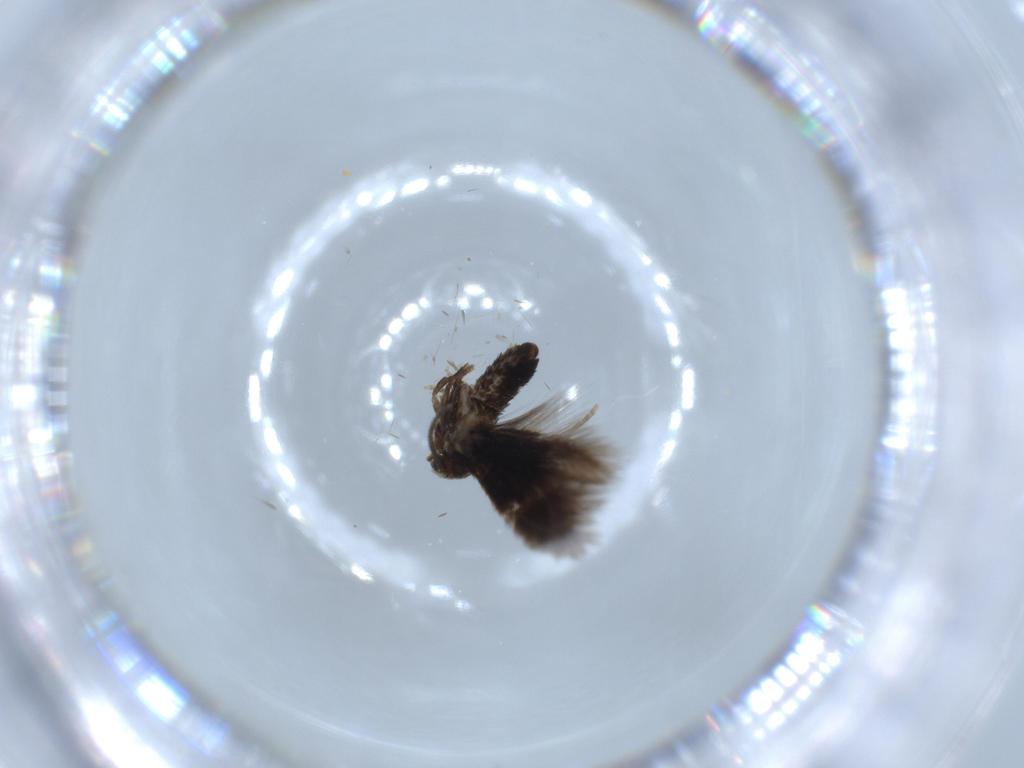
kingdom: Animalia
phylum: Arthropoda
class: Insecta
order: Lepidoptera
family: Nepticulidae
